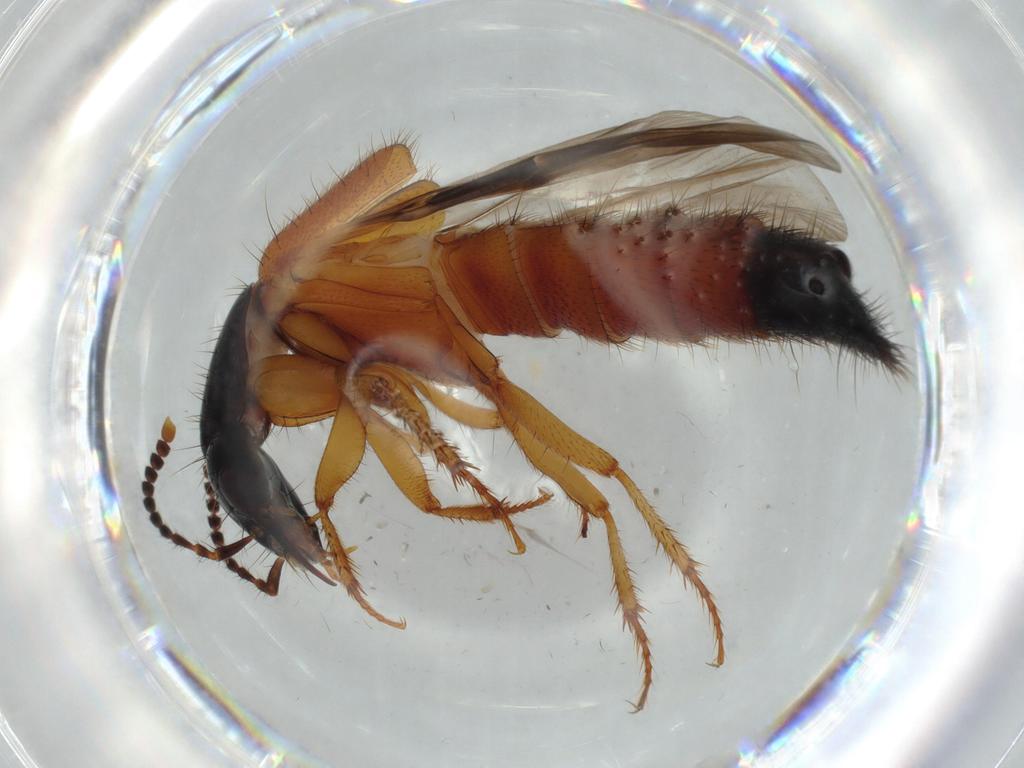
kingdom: Animalia
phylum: Arthropoda
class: Insecta
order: Coleoptera
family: Staphylinidae
